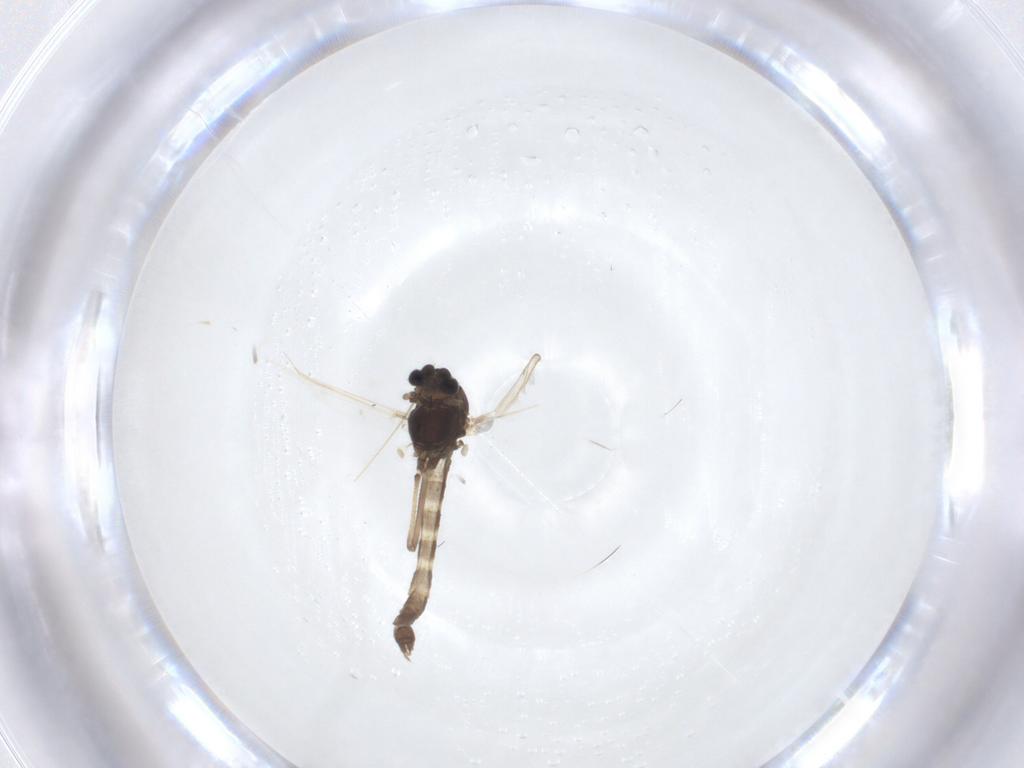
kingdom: Animalia
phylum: Arthropoda
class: Insecta
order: Diptera
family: Chironomidae
